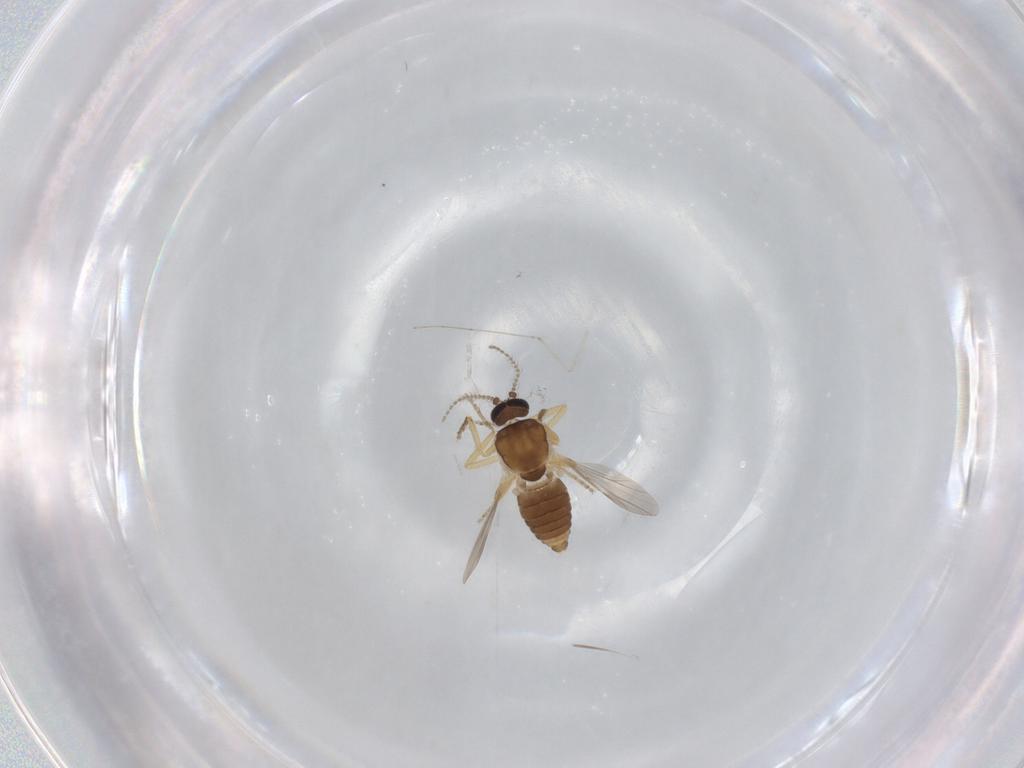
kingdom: Animalia
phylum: Arthropoda
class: Insecta
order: Diptera
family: Ceratopogonidae
